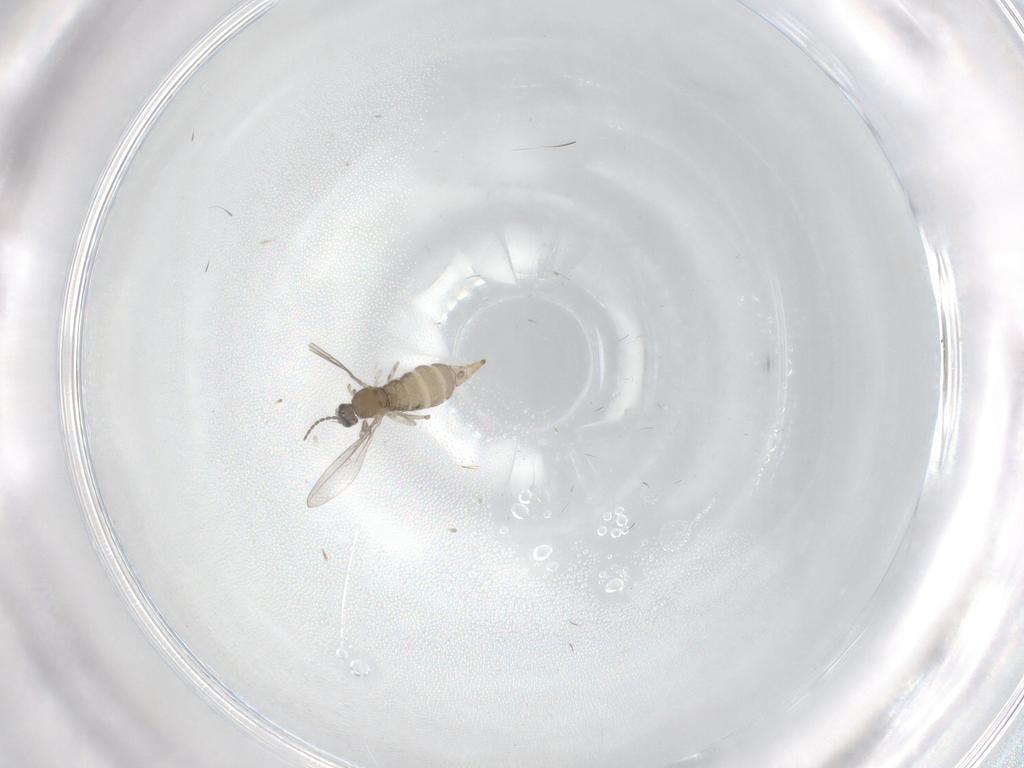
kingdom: Animalia
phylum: Arthropoda
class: Insecta
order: Diptera
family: Cecidomyiidae
